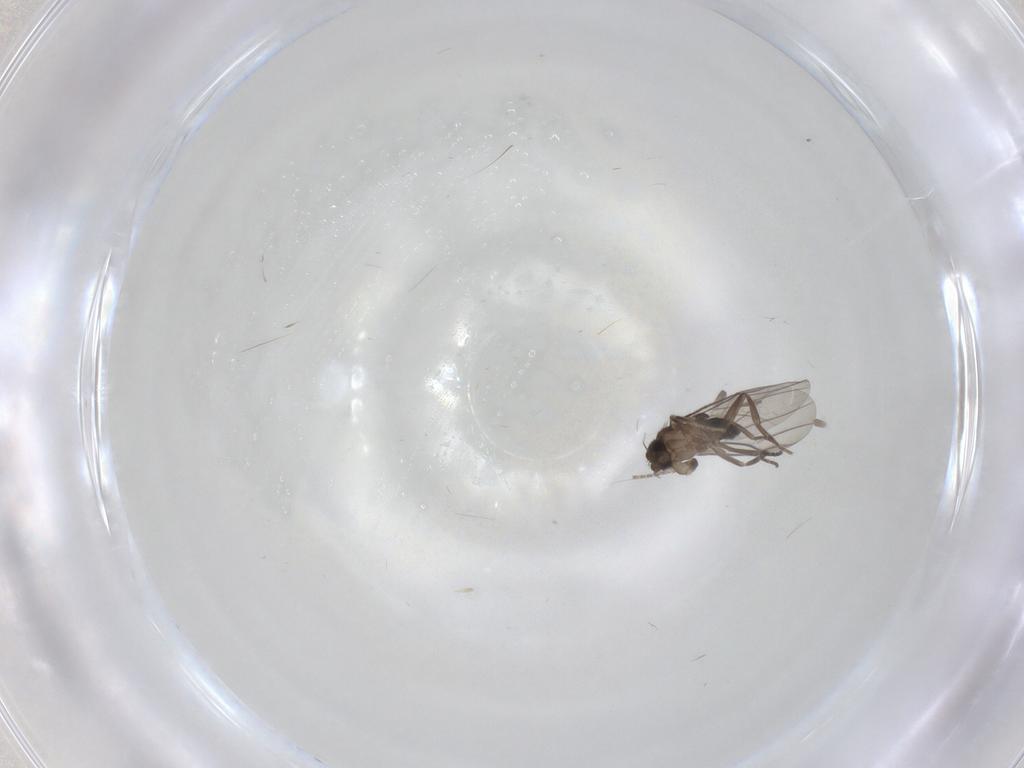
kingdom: Animalia
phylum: Arthropoda
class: Insecta
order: Diptera
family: Phoridae
